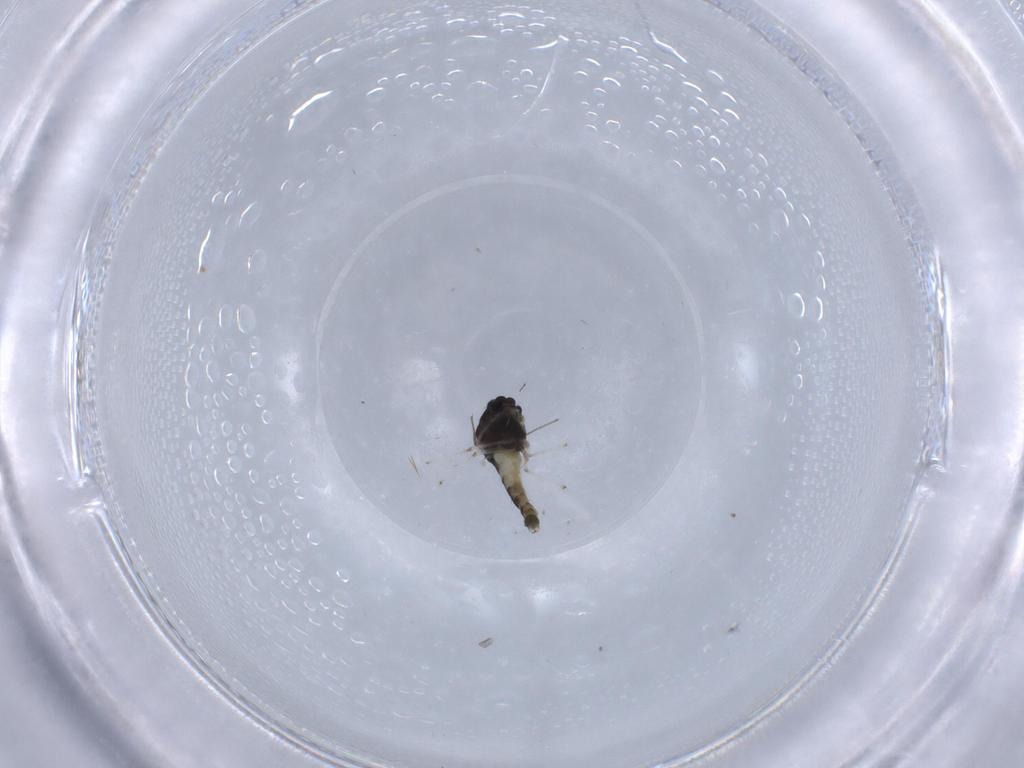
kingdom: Animalia
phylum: Arthropoda
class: Insecta
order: Diptera
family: Chironomidae
